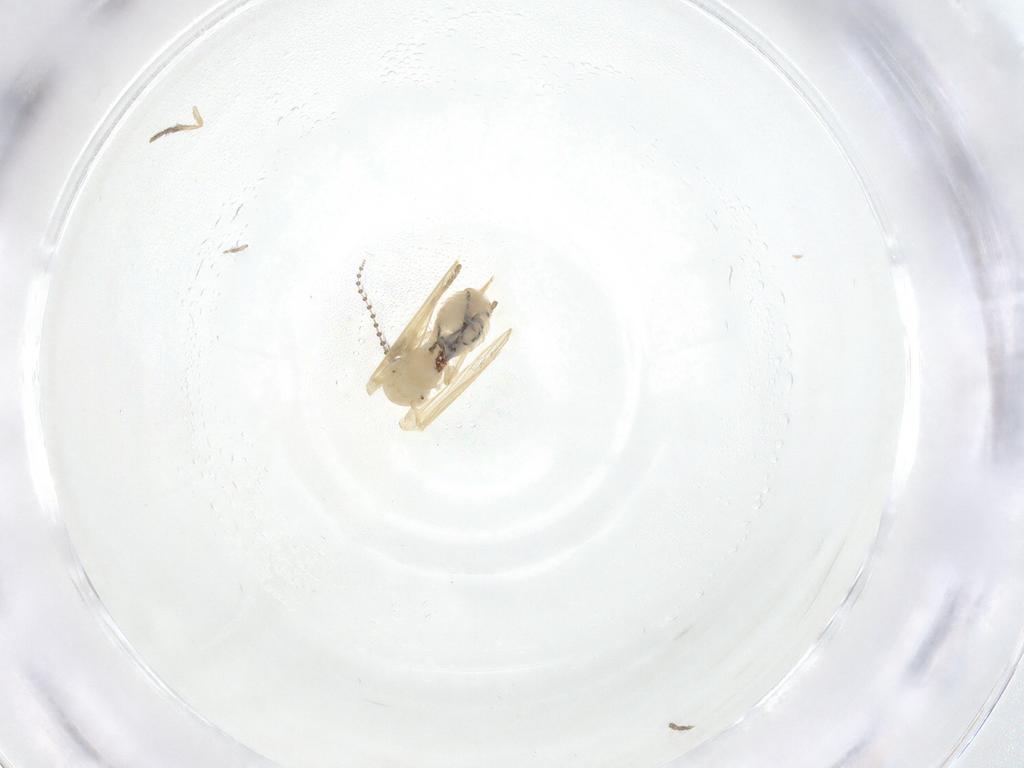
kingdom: Animalia
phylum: Arthropoda
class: Insecta
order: Diptera
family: Psychodidae
